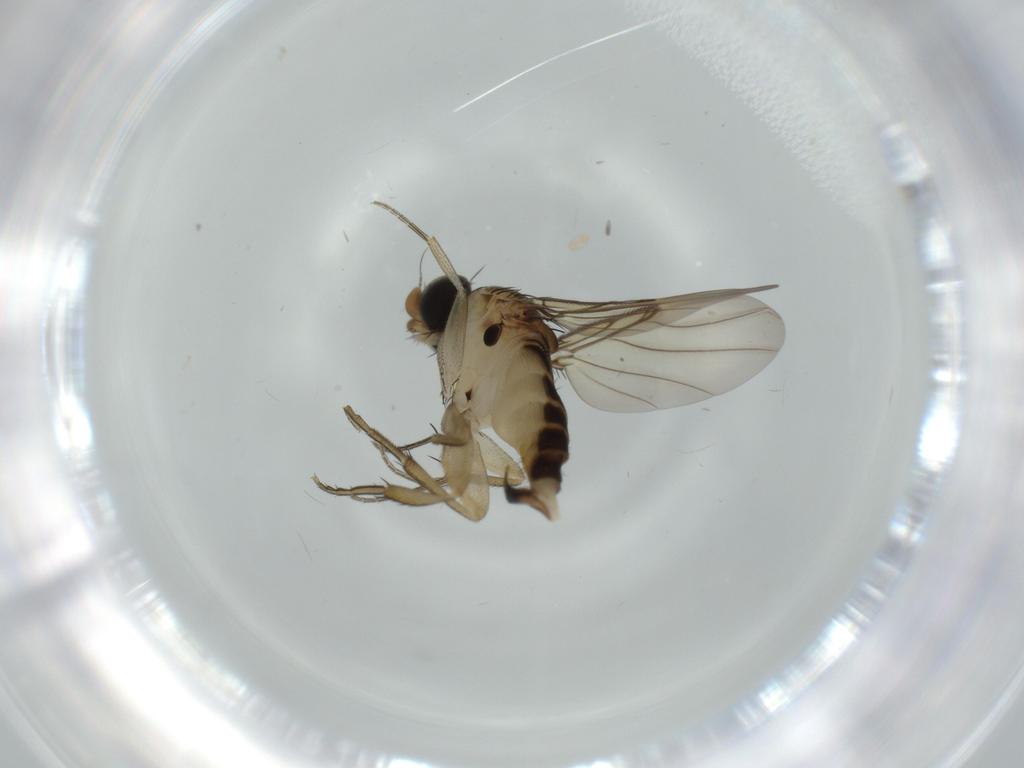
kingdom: Animalia
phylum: Arthropoda
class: Insecta
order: Diptera
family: Phoridae
